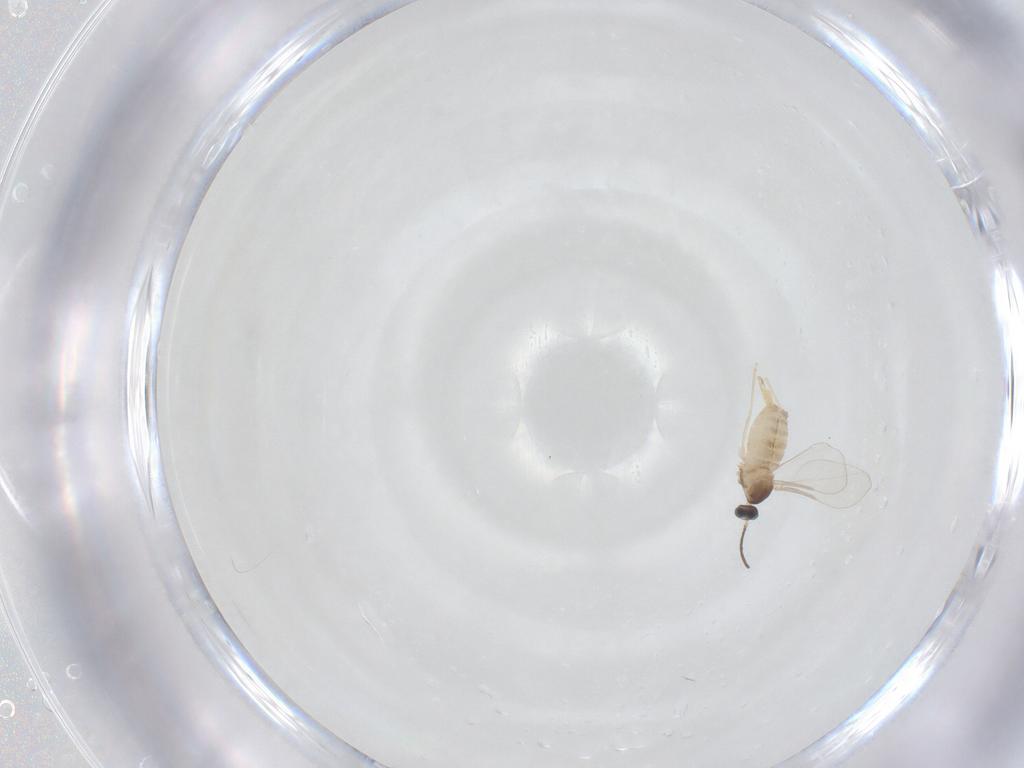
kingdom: Animalia
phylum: Arthropoda
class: Insecta
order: Diptera
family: Cecidomyiidae
